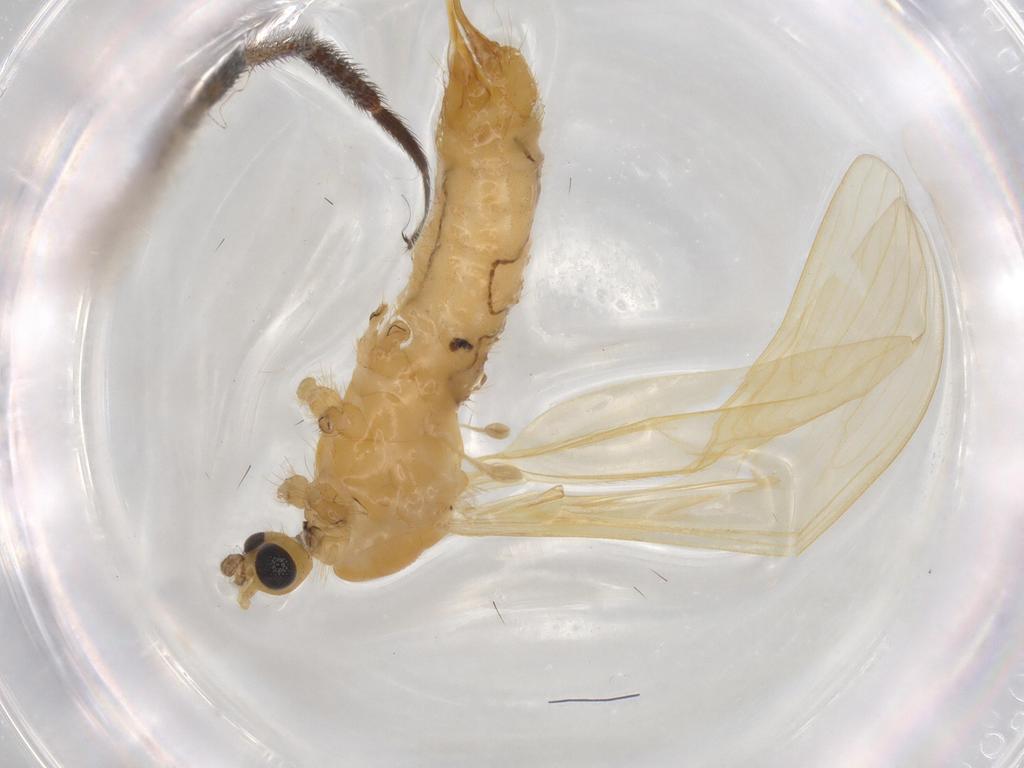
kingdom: Animalia
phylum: Arthropoda
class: Insecta
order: Diptera
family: Limoniidae
